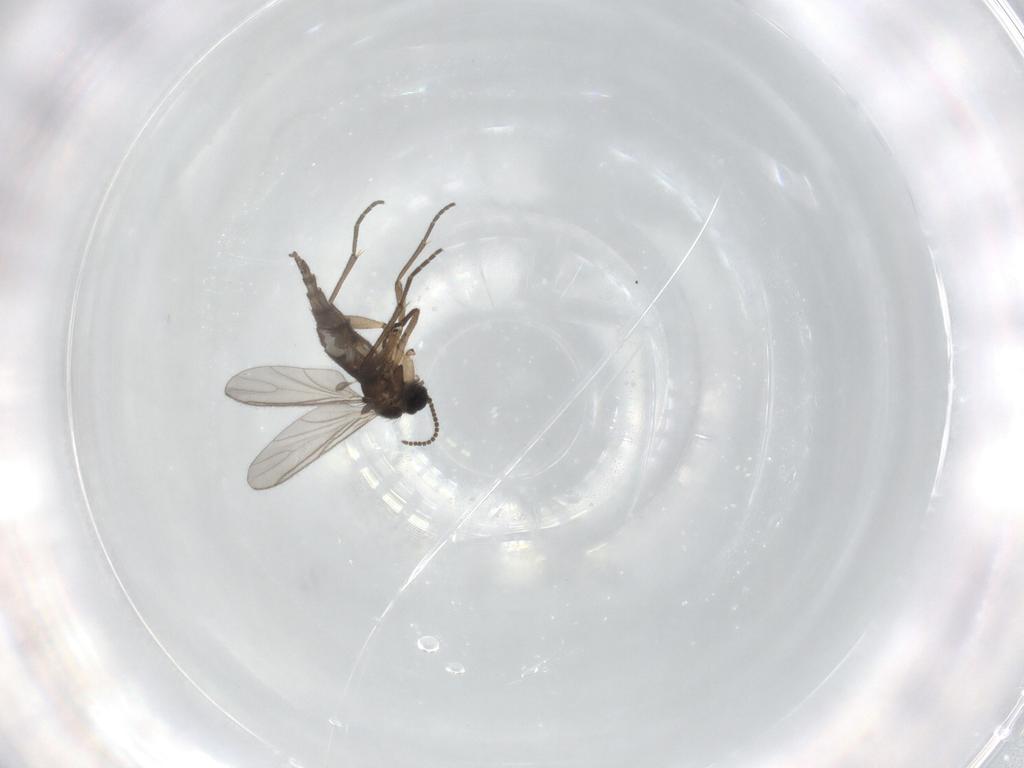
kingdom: Animalia
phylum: Arthropoda
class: Insecta
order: Diptera
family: Sciaridae
